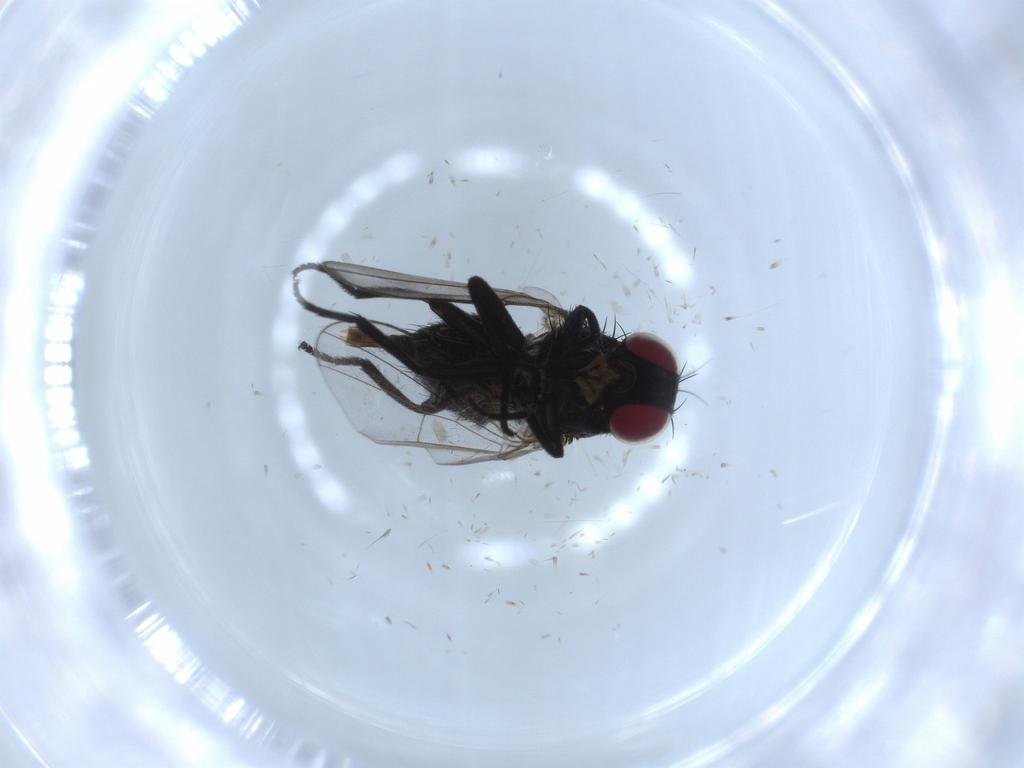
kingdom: Animalia
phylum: Arthropoda
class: Insecta
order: Diptera
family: Agromyzidae
